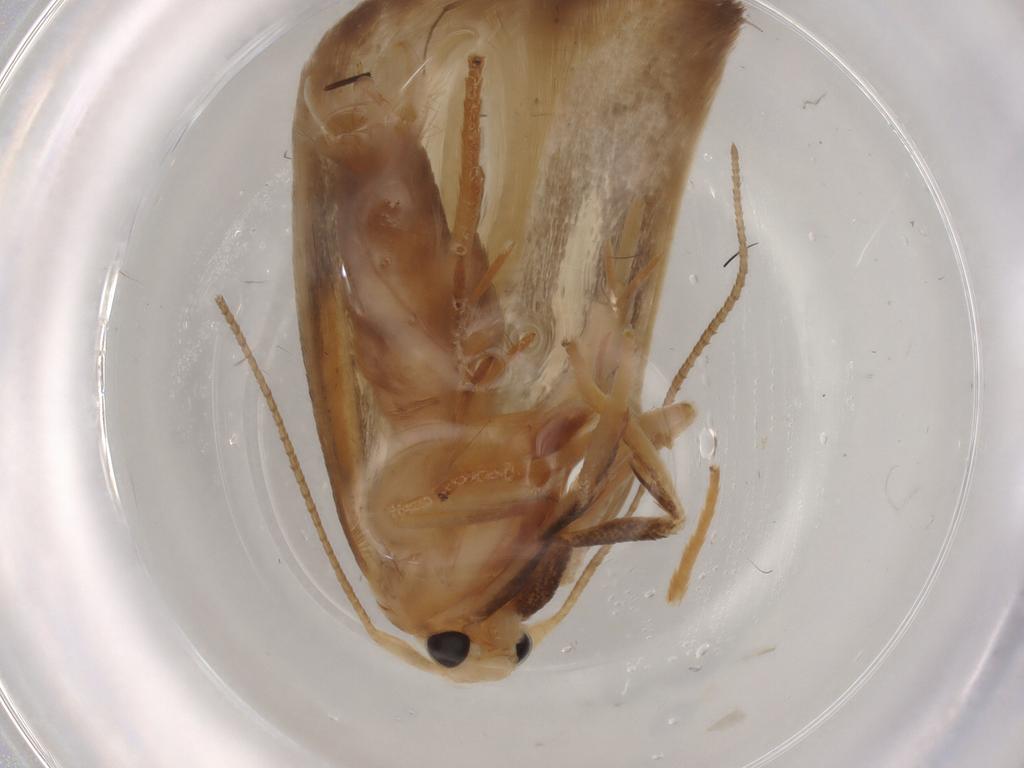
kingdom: Animalia
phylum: Arthropoda
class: Insecta
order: Lepidoptera
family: Geometridae
